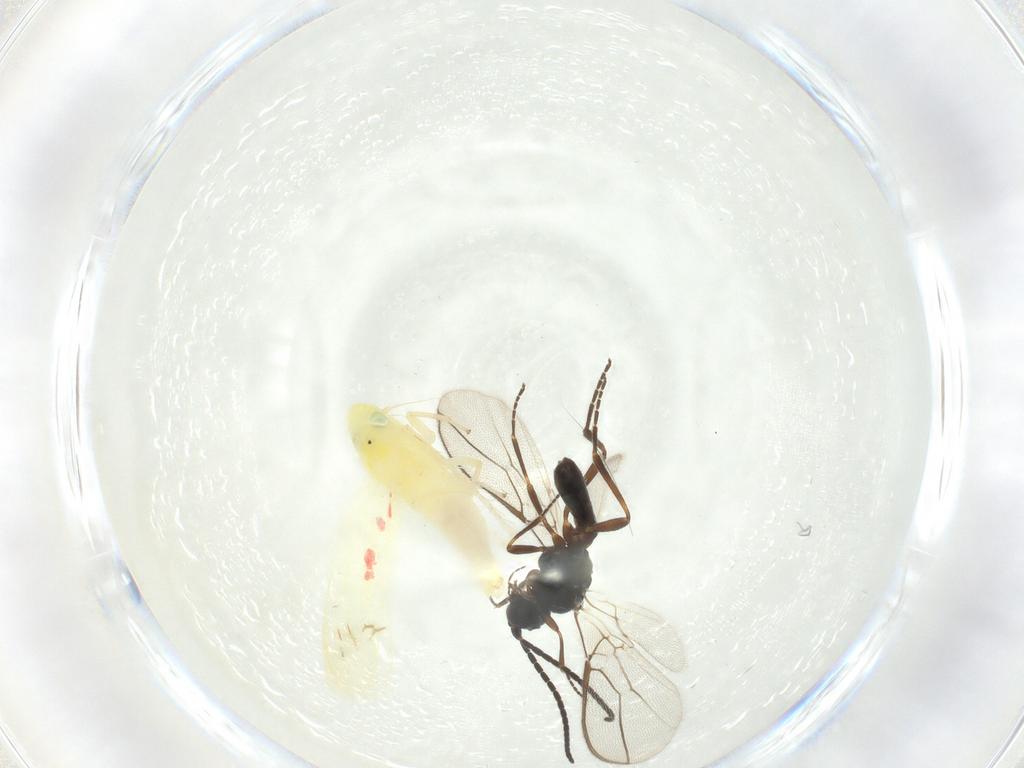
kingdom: Animalia
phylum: Arthropoda
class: Insecta
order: Hemiptera
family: Cicadellidae
